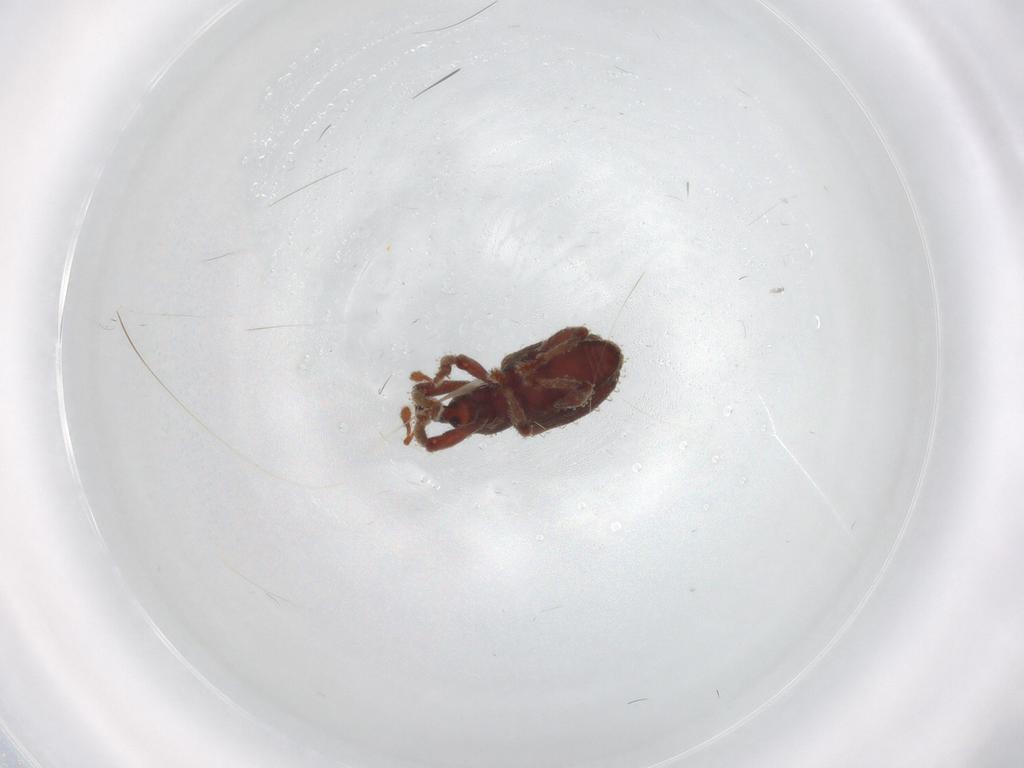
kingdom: Animalia
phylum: Arthropoda
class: Insecta
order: Coleoptera
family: Curculionidae
